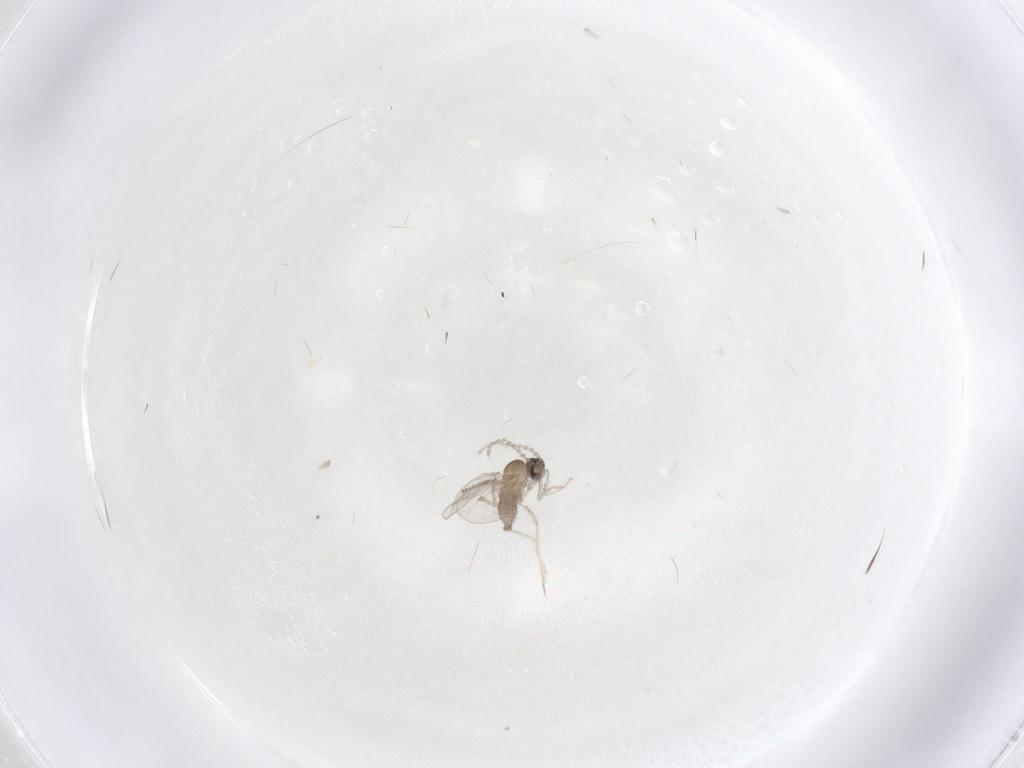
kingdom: Animalia
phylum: Arthropoda
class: Insecta
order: Diptera
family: Cecidomyiidae
